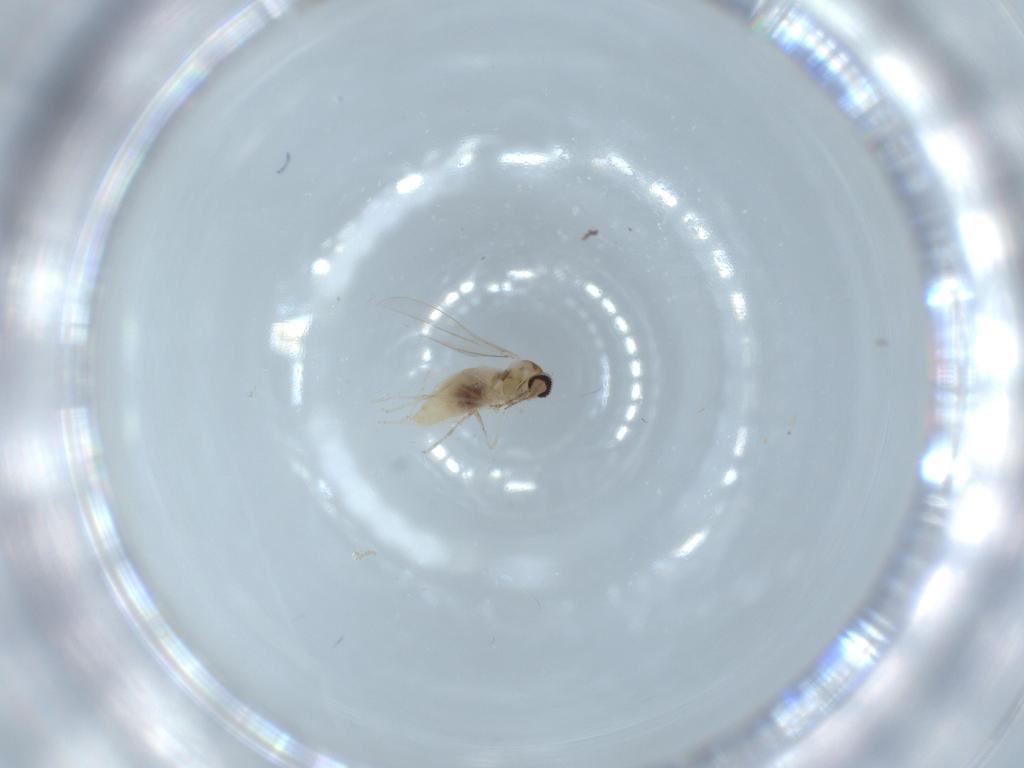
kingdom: Animalia
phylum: Arthropoda
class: Insecta
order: Diptera
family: Cecidomyiidae
